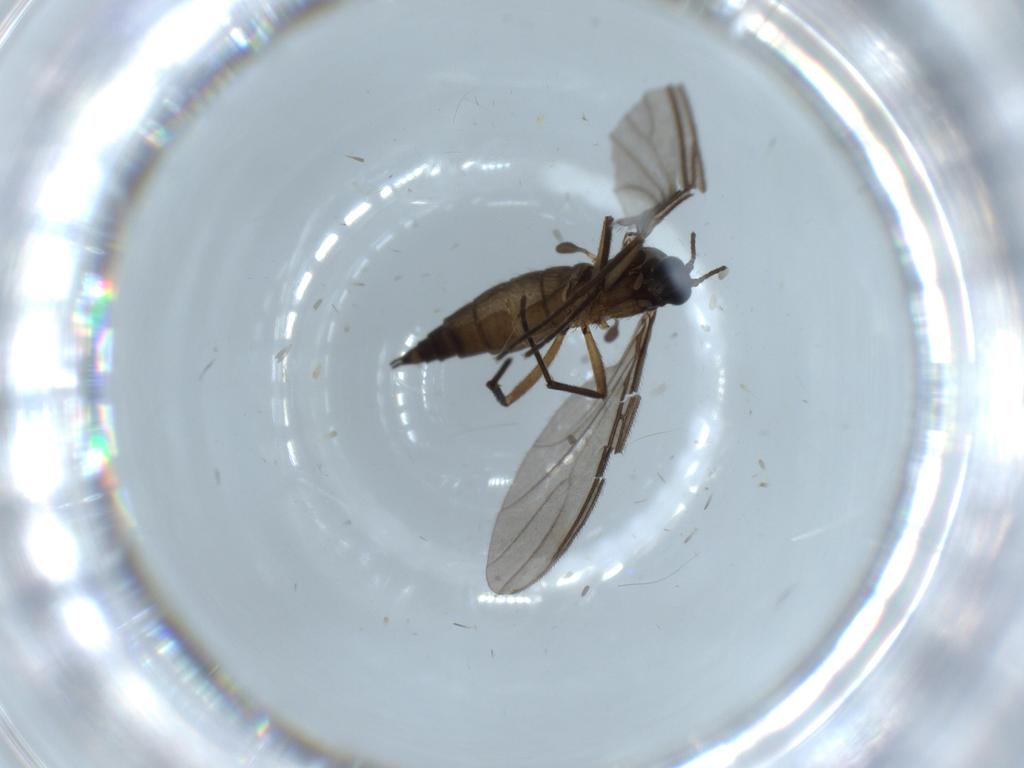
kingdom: Animalia
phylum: Arthropoda
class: Insecta
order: Diptera
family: Sciaridae
